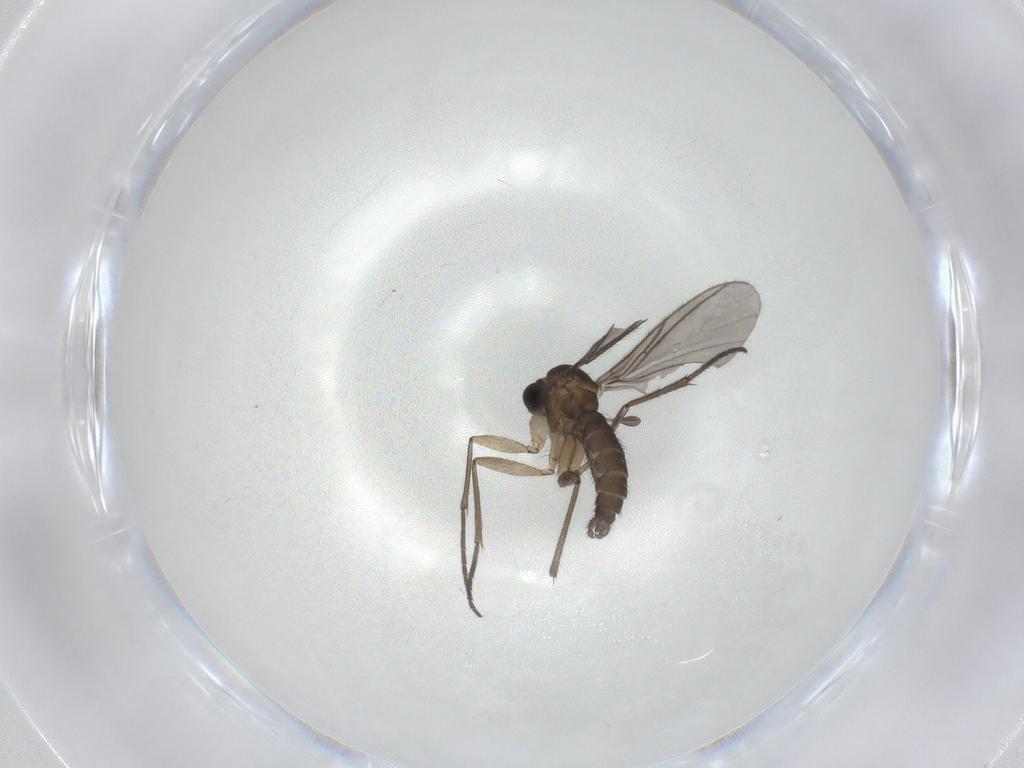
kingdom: Animalia
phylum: Arthropoda
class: Insecta
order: Diptera
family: Sciaridae
